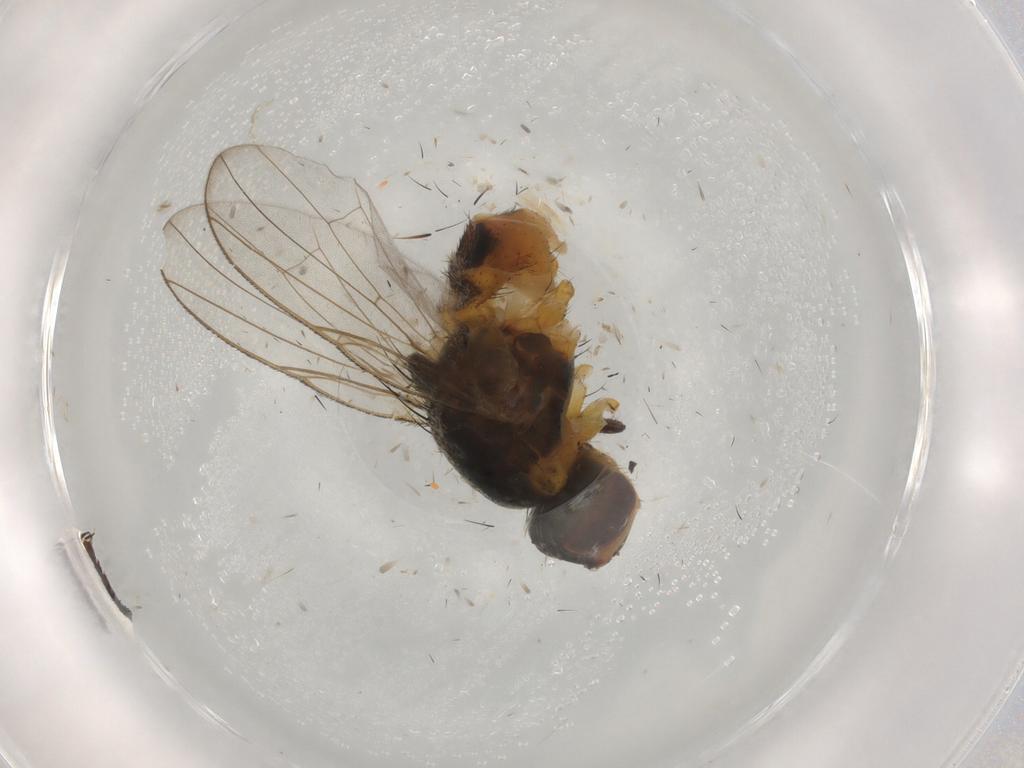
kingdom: Animalia
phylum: Arthropoda
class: Insecta
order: Diptera
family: Muscidae
